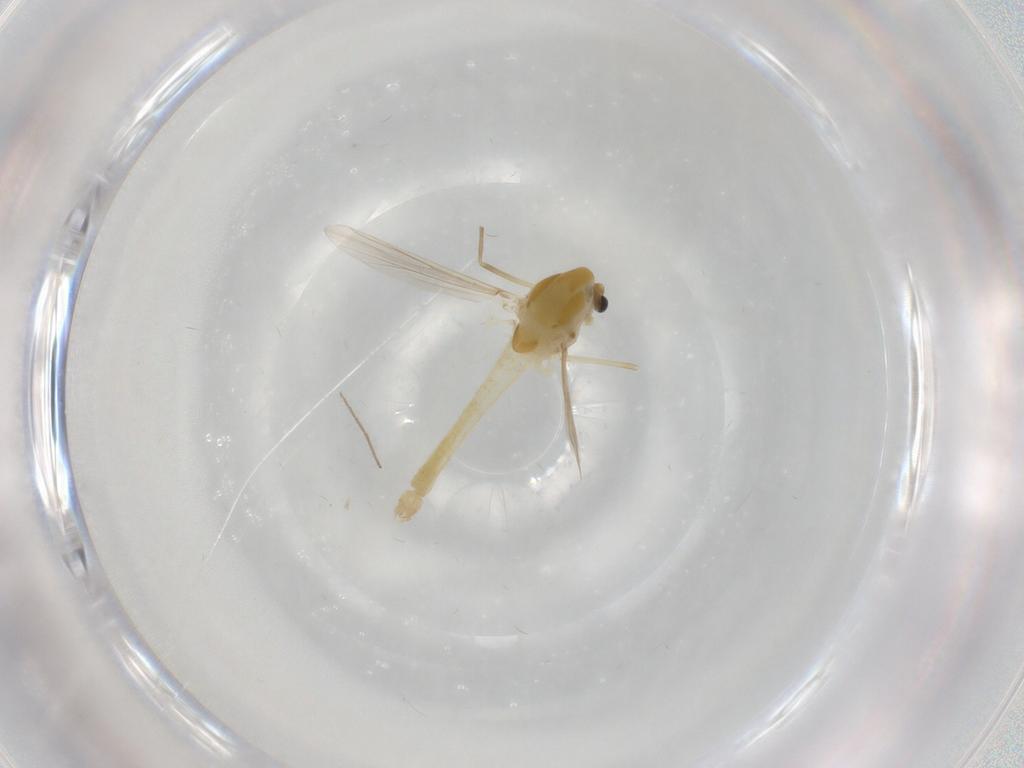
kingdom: Animalia
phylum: Arthropoda
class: Insecta
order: Diptera
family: Chironomidae
